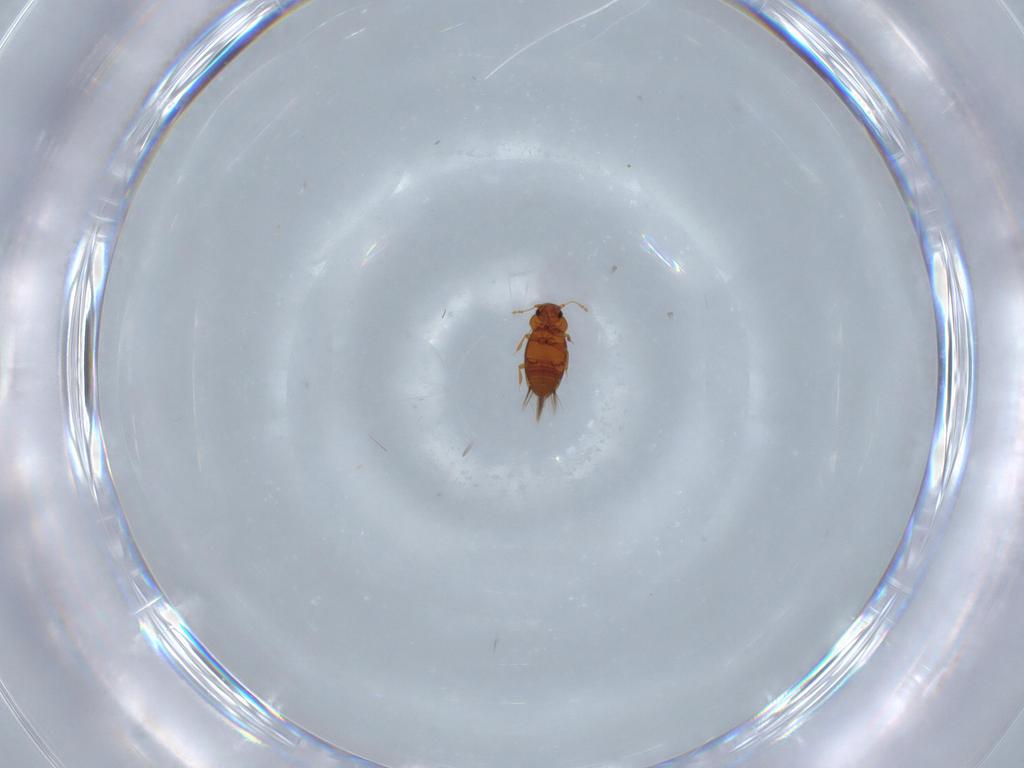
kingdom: Animalia
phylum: Arthropoda
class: Insecta
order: Coleoptera
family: Ptiliidae
